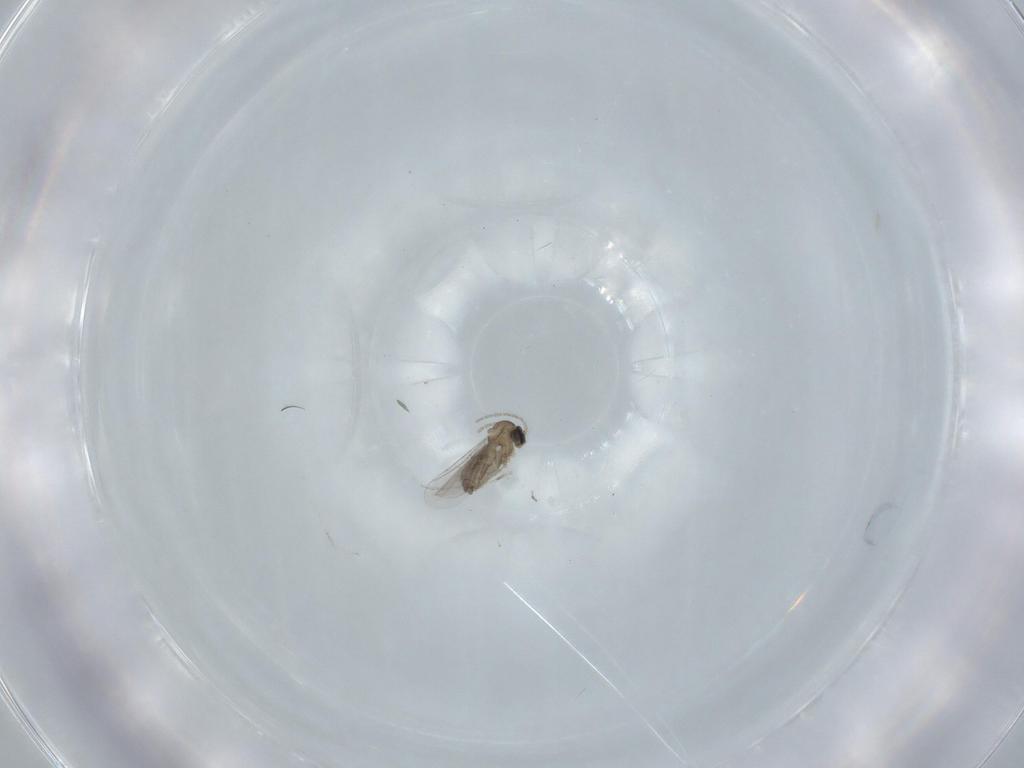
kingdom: Animalia
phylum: Arthropoda
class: Insecta
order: Diptera
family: Cecidomyiidae
